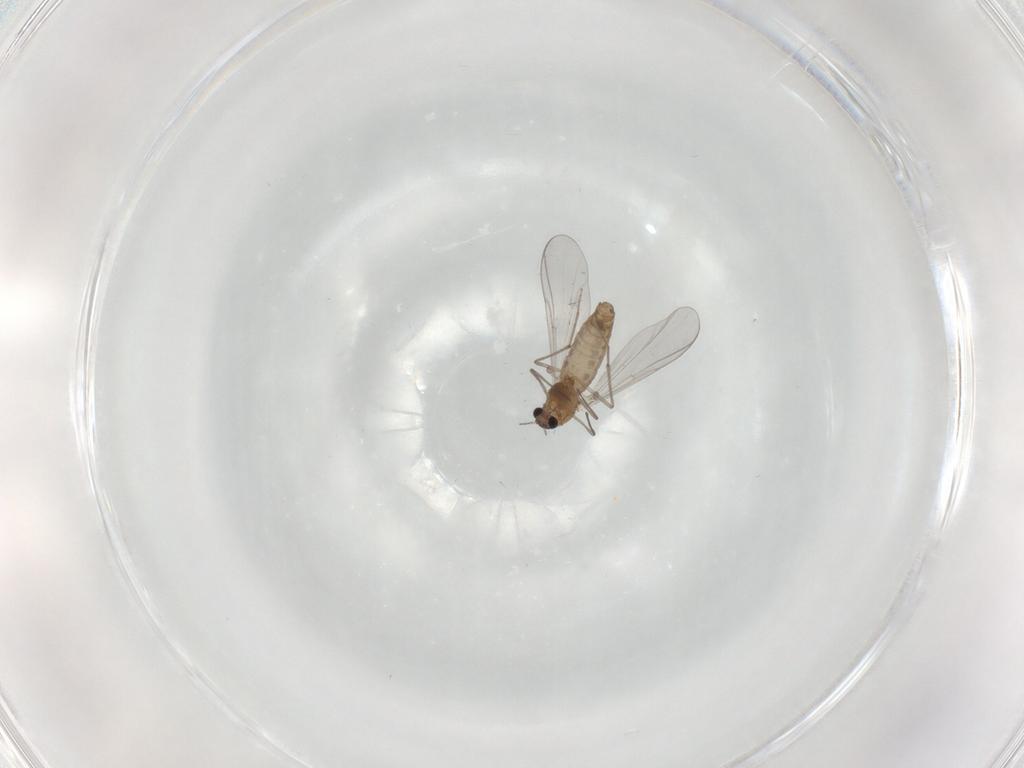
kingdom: Animalia
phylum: Arthropoda
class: Insecta
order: Diptera
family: Chironomidae
